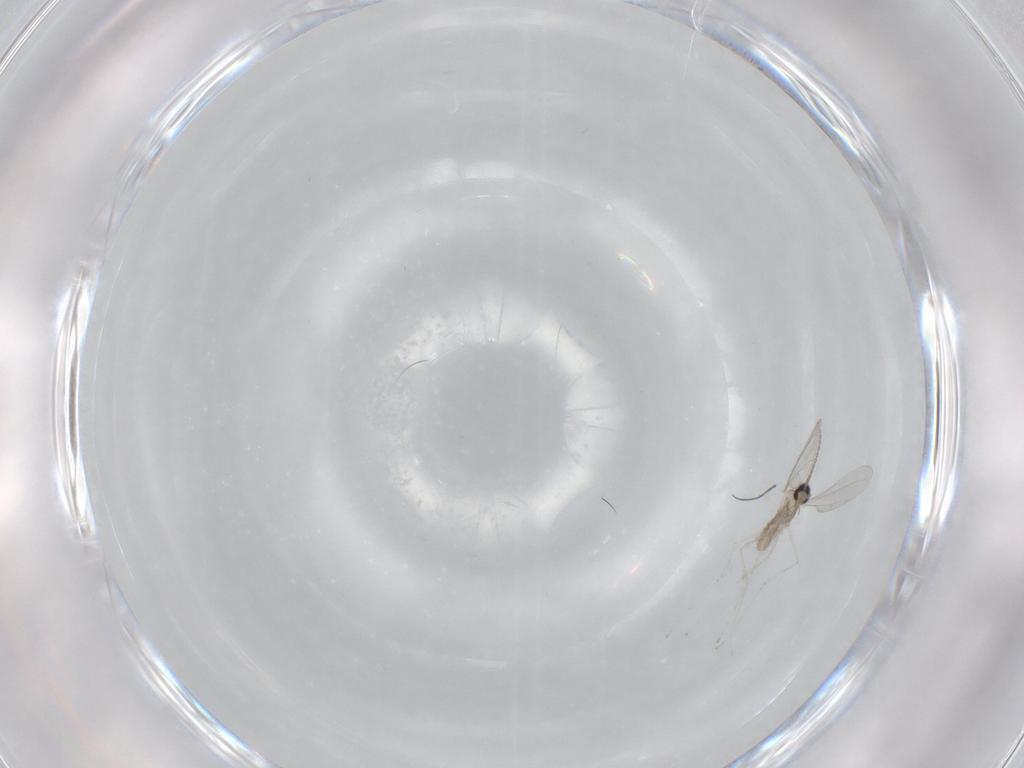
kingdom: Animalia
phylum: Arthropoda
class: Insecta
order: Diptera
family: Cecidomyiidae
